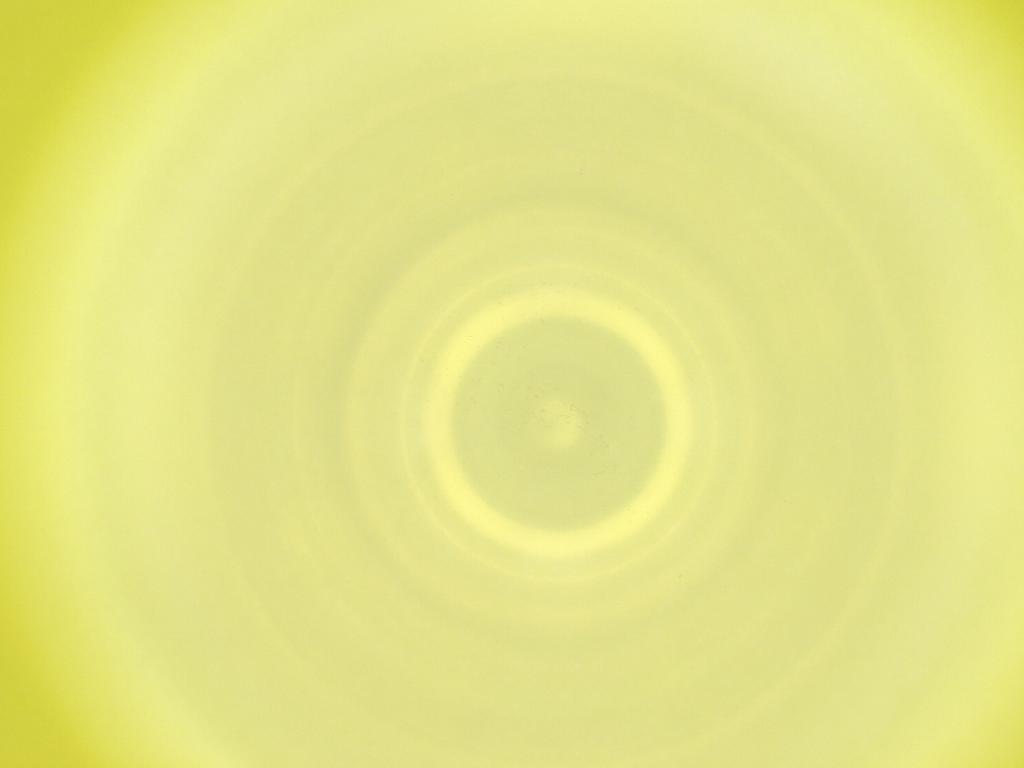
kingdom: Animalia
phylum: Arthropoda
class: Insecta
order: Diptera
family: Cecidomyiidae
